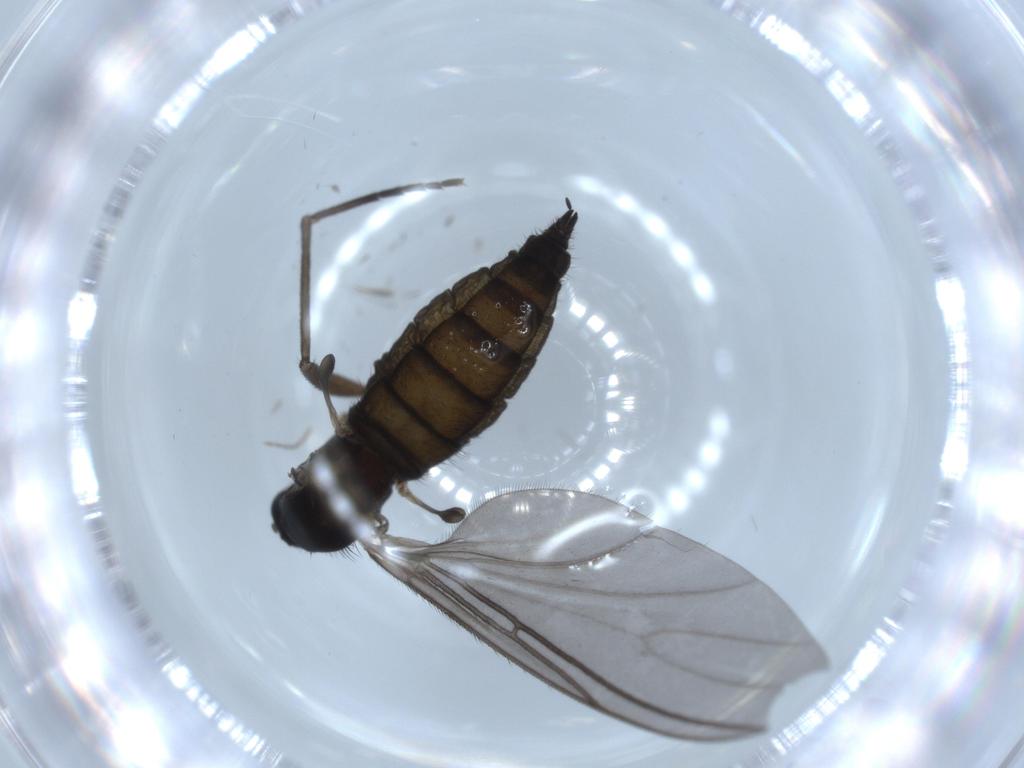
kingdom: Animalia
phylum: Arthropoda
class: Insecta
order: Diptera
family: Sciaridae
